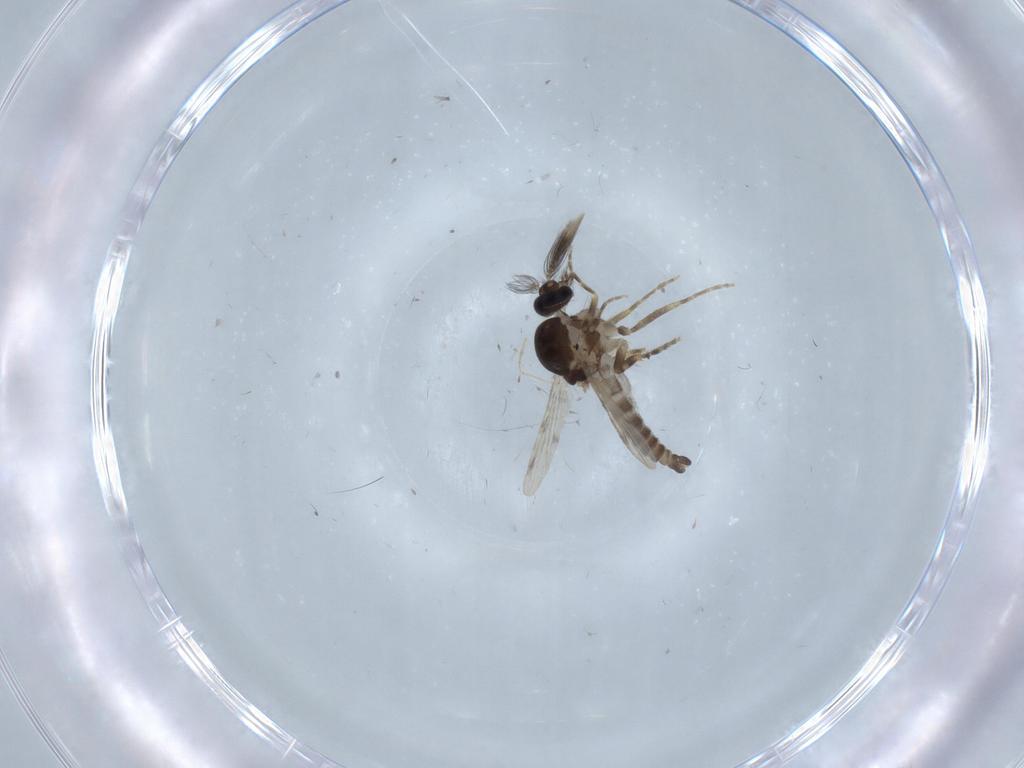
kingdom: Animalia
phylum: Arthropoda
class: Insecta
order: Diptera
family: Ceratopogonidae
